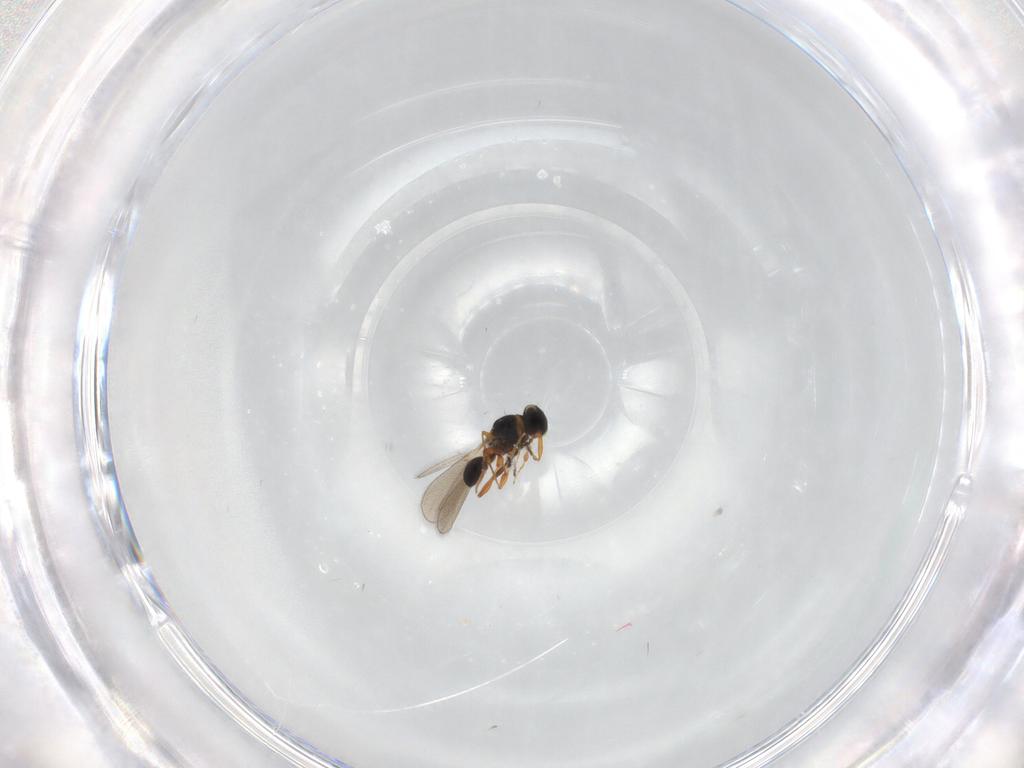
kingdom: Animalia
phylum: Arthropoda
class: Insecta
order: Hymenoptera
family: Platygastridae
